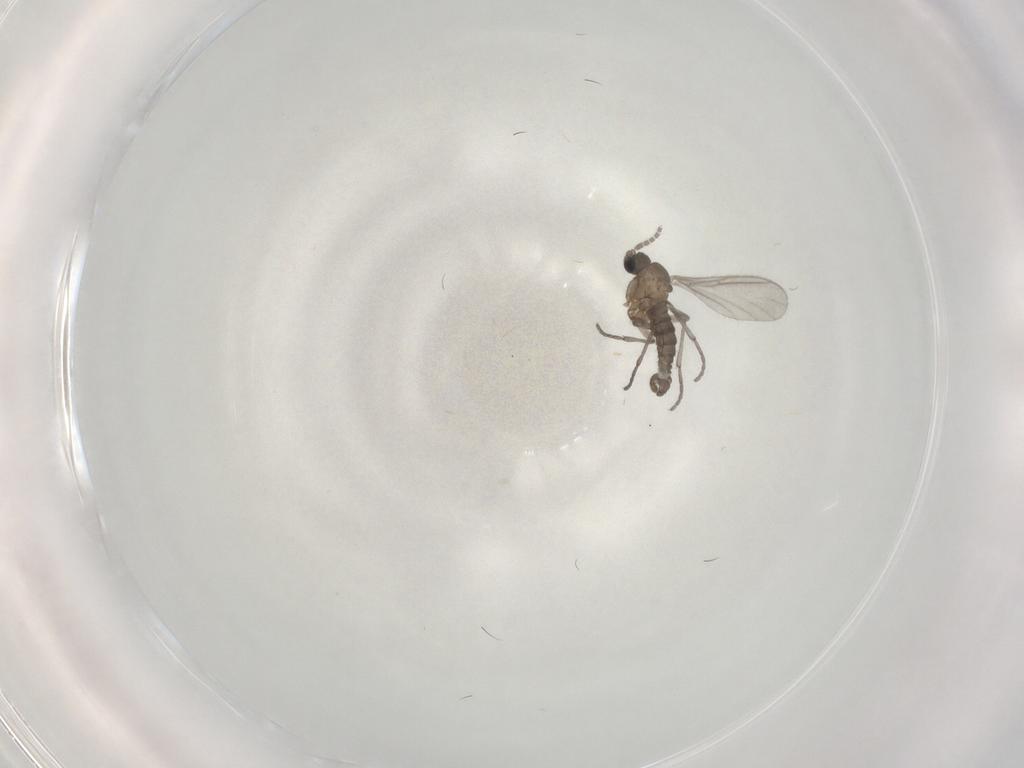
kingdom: Animalia
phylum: Arthropoda
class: Insecta
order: Diptera
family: Sciaridae
